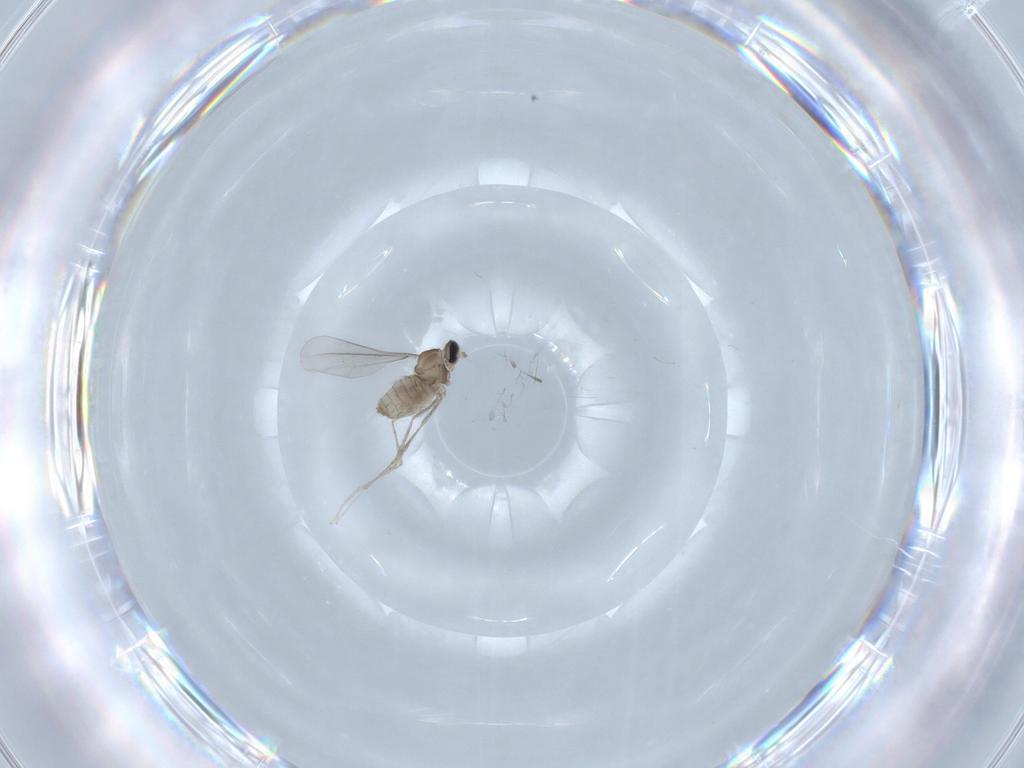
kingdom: Animalia
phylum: Arthropoda
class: Insecta
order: Diptera
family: Cecidomyiidae
